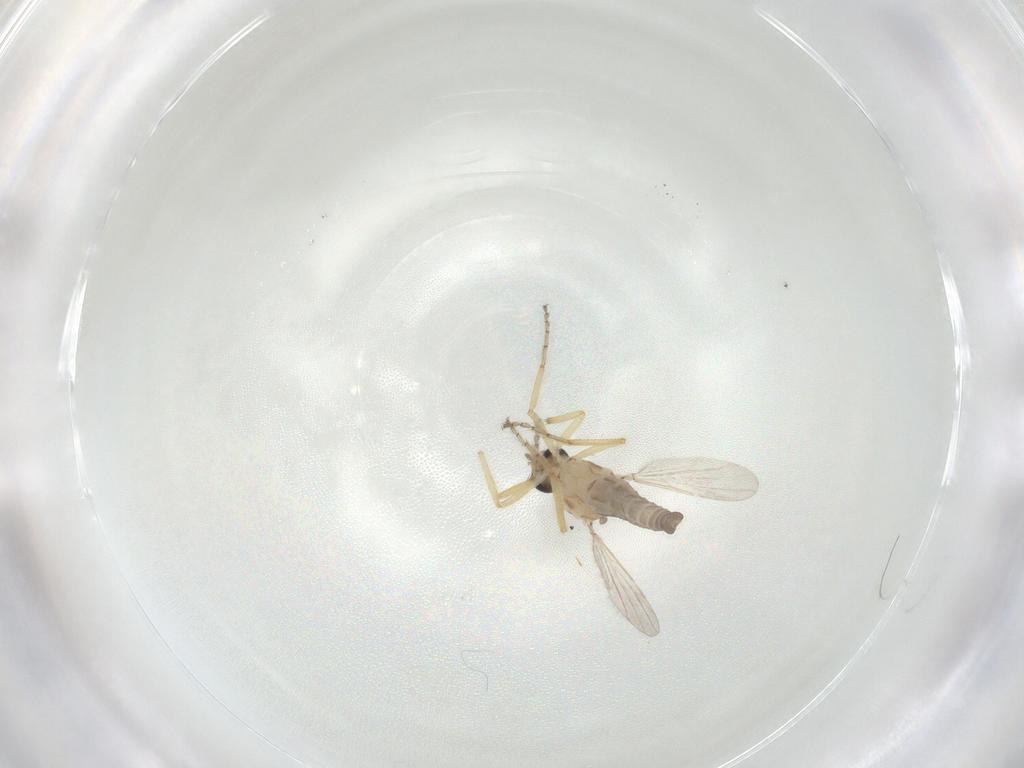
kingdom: Animalia
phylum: Arthropoda
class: Insecta
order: Diptera
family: Ceratopogonidae
